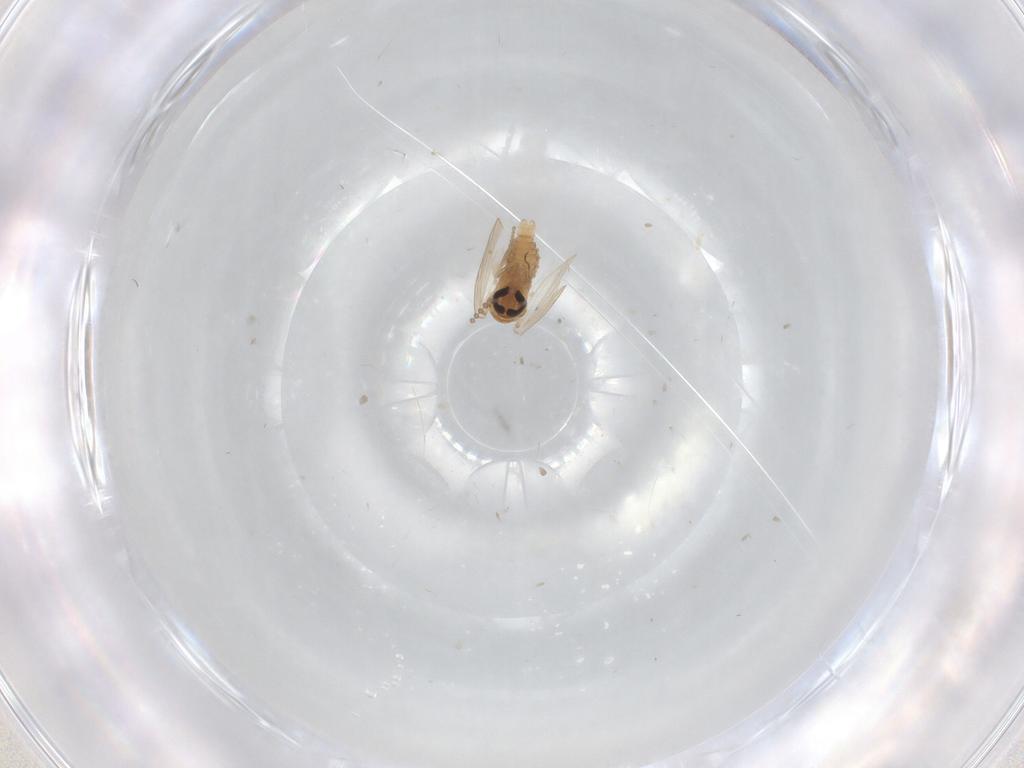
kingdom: Animalia
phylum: Arthropoda
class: Insecta
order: Diptera
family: Psychodidae
